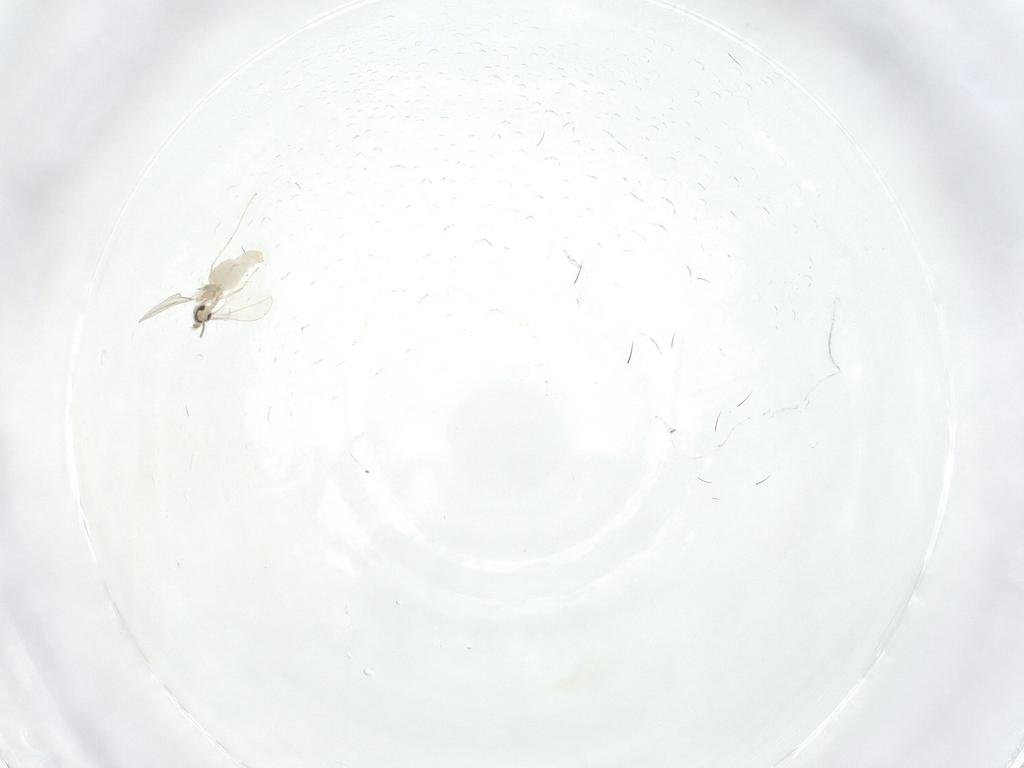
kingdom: Animalia
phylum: Arthropoda
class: Insecta
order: Diptera
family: Cecidomyiidae
